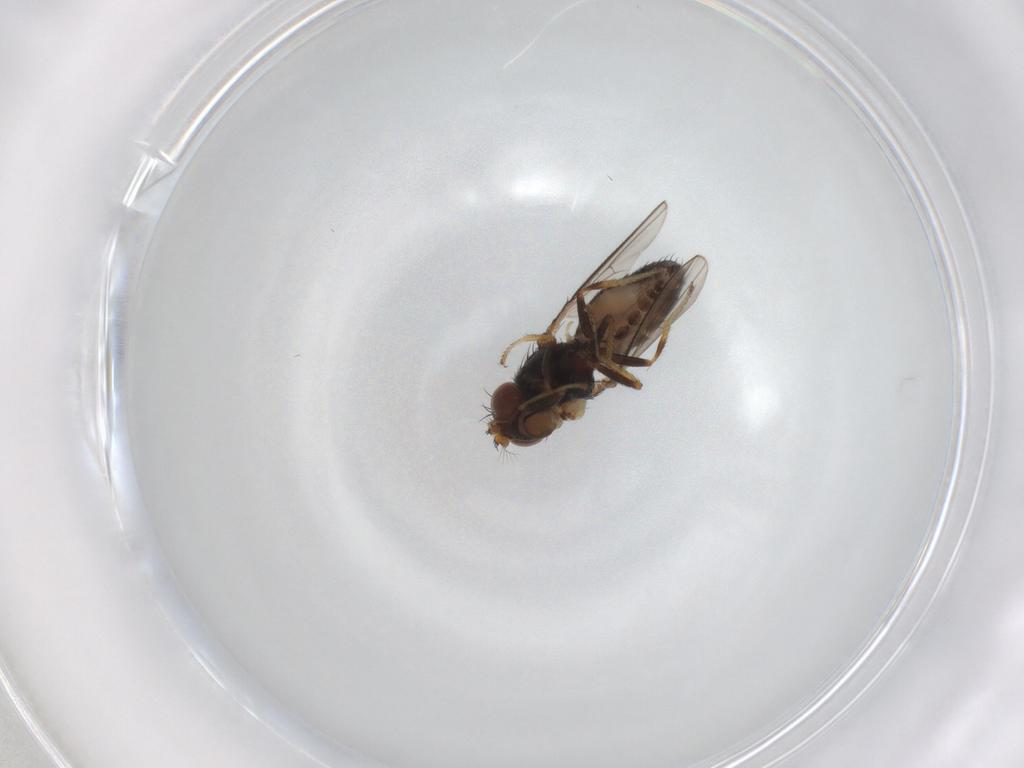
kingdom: Animalia
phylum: Arthropoda
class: Insecta
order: Diptera
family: Ephydridae
